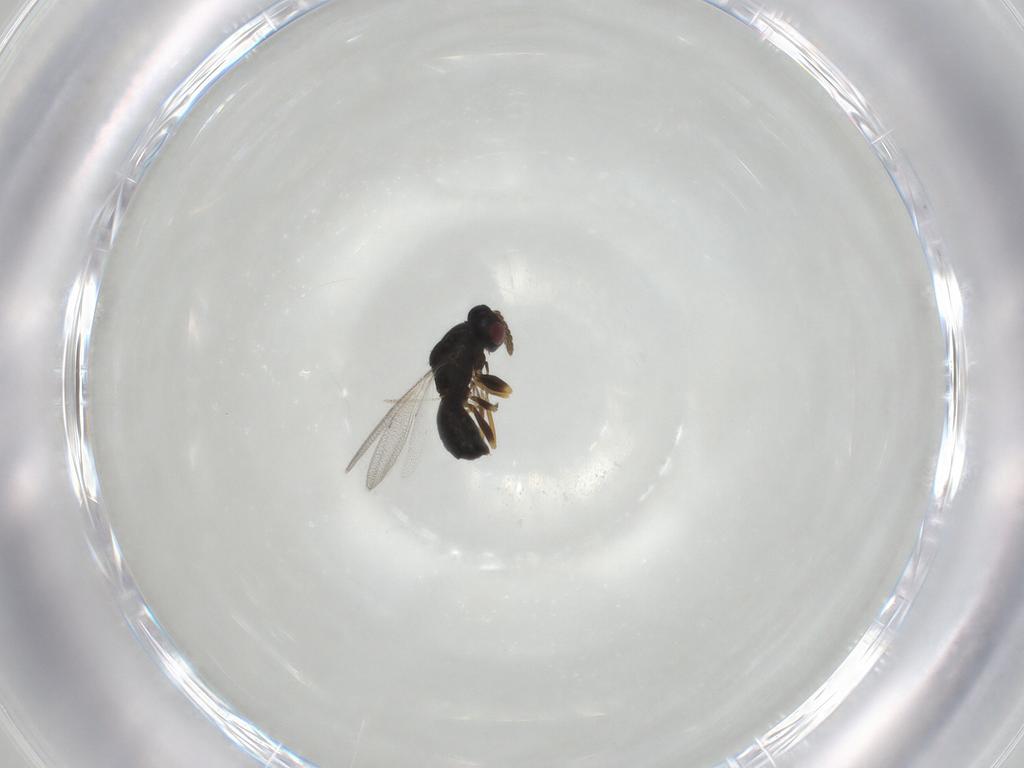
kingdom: Animalia
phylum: Arthropoda
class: Insecta
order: Hymenoptera
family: Eulophidae
